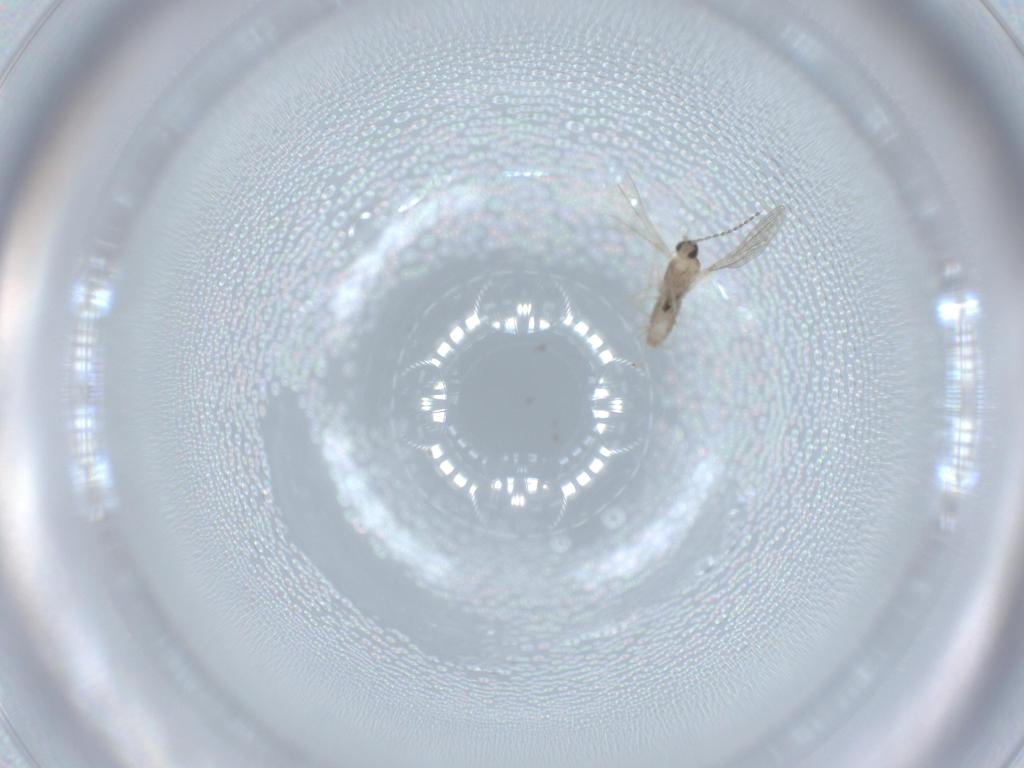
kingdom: Animalia
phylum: Arthropoda
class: Insecta
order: Diptera
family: Cecidomyiidae
